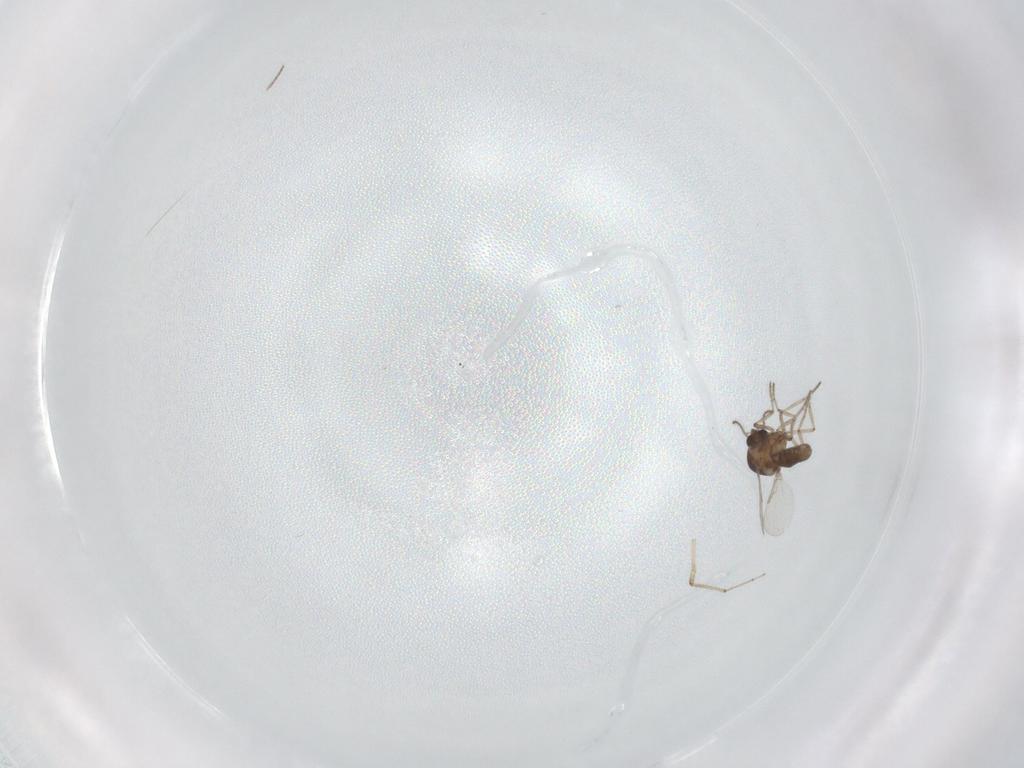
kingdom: Animalia
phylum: Arthropoda
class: Insecta
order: Diptera
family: Ceratopogonidae
